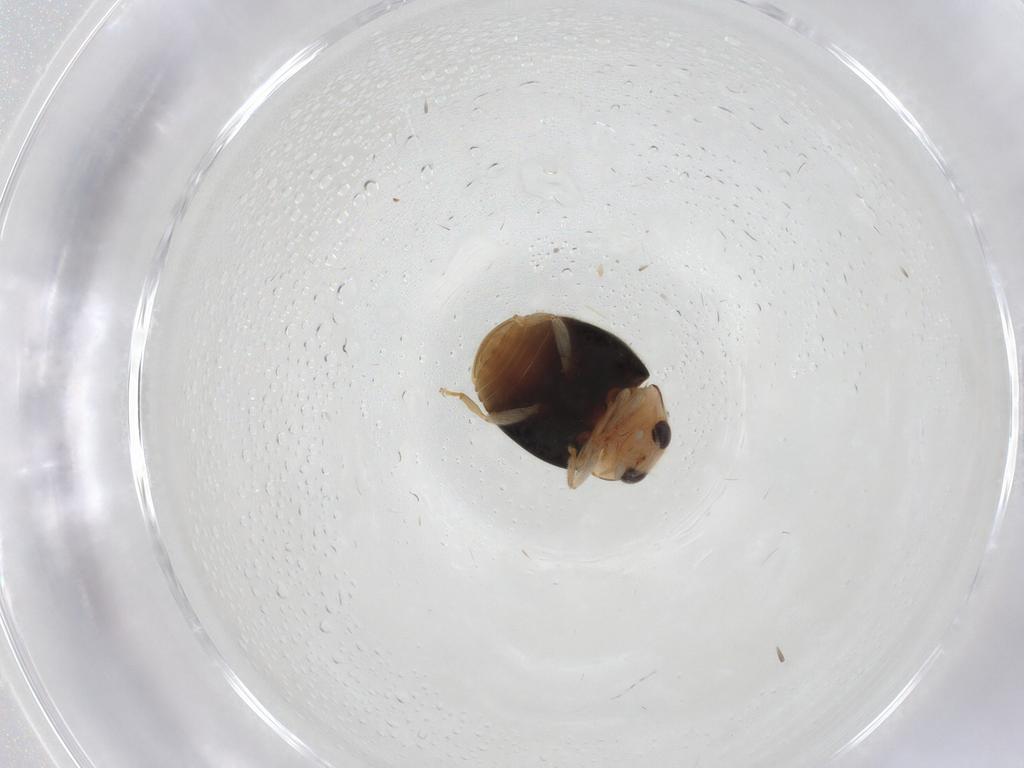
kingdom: Animalia
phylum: Arthropoda
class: Insecta
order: Coleoptera
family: Coccinellidae
